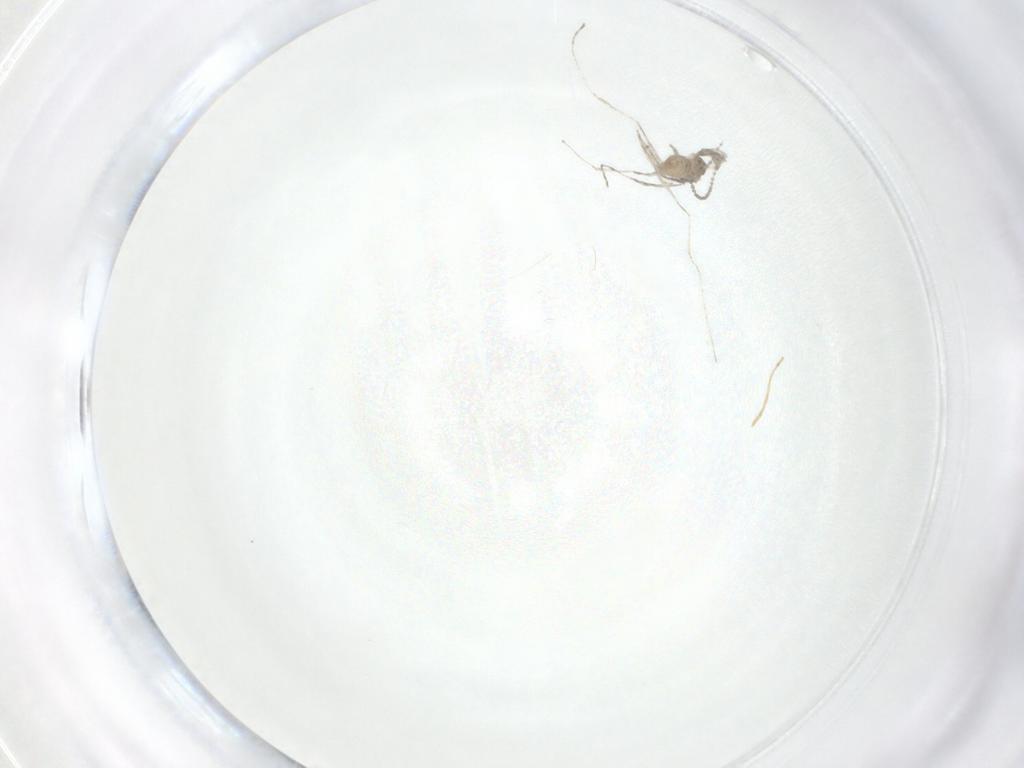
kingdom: Animalia
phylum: Arthropoda
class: Insecta
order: Diptera
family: Cecidomyiidae
